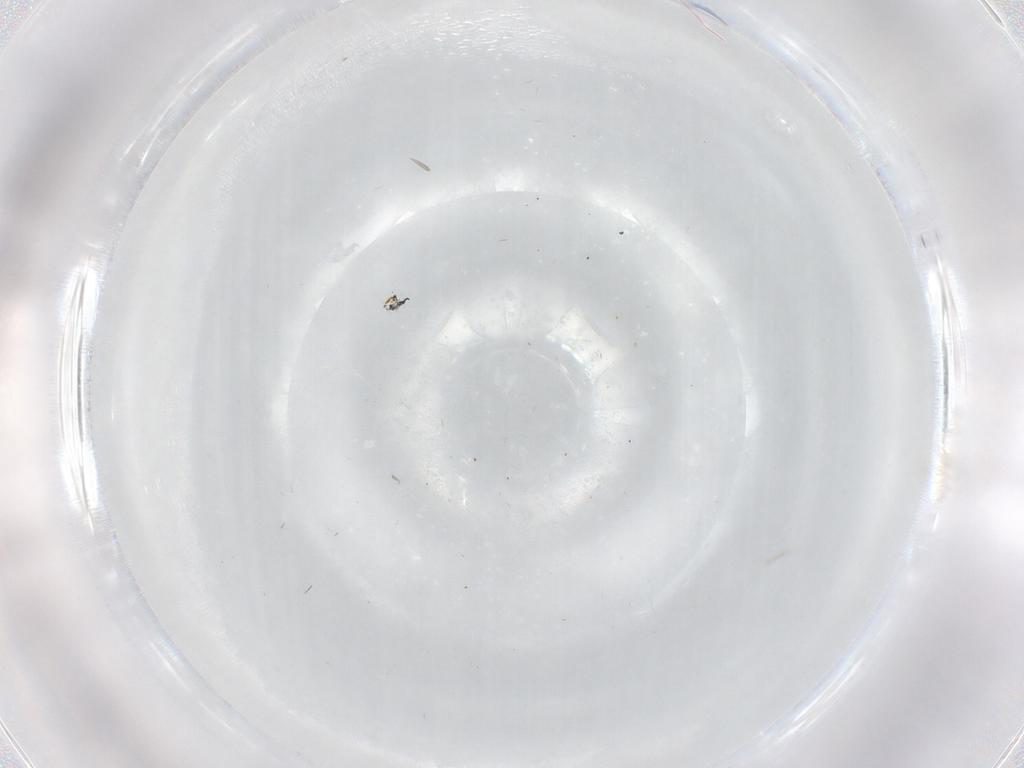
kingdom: Animalia
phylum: Arthropoda
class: Insecta
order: Diptera
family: Cecidomyiidae
